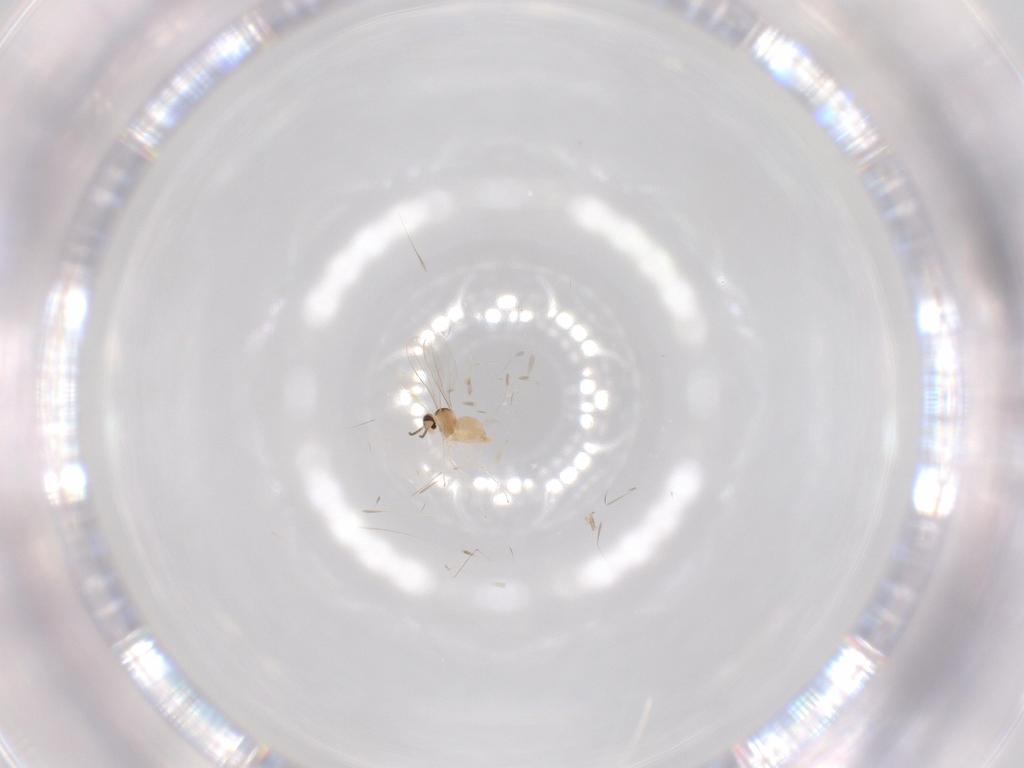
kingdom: Animalia
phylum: Arthropoda
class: Insecta
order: Diptera
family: Cecidomyiidae
